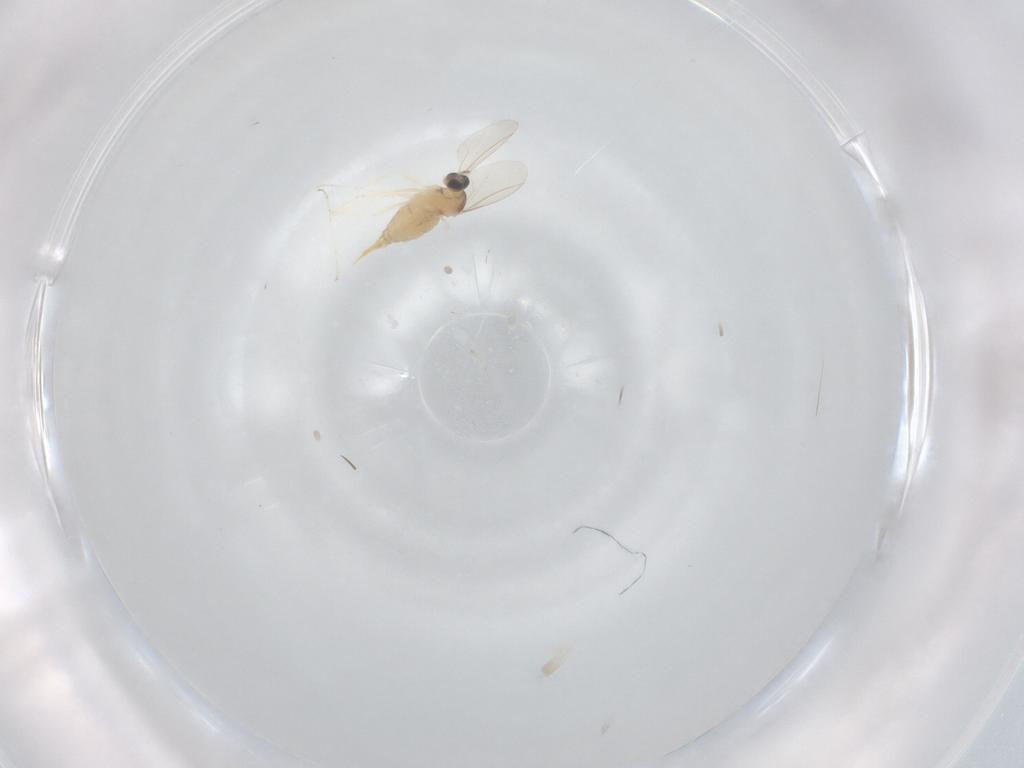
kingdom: Animalia
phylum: Arthropoda
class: Insecta
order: Diptera
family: Cecidomyiidae
